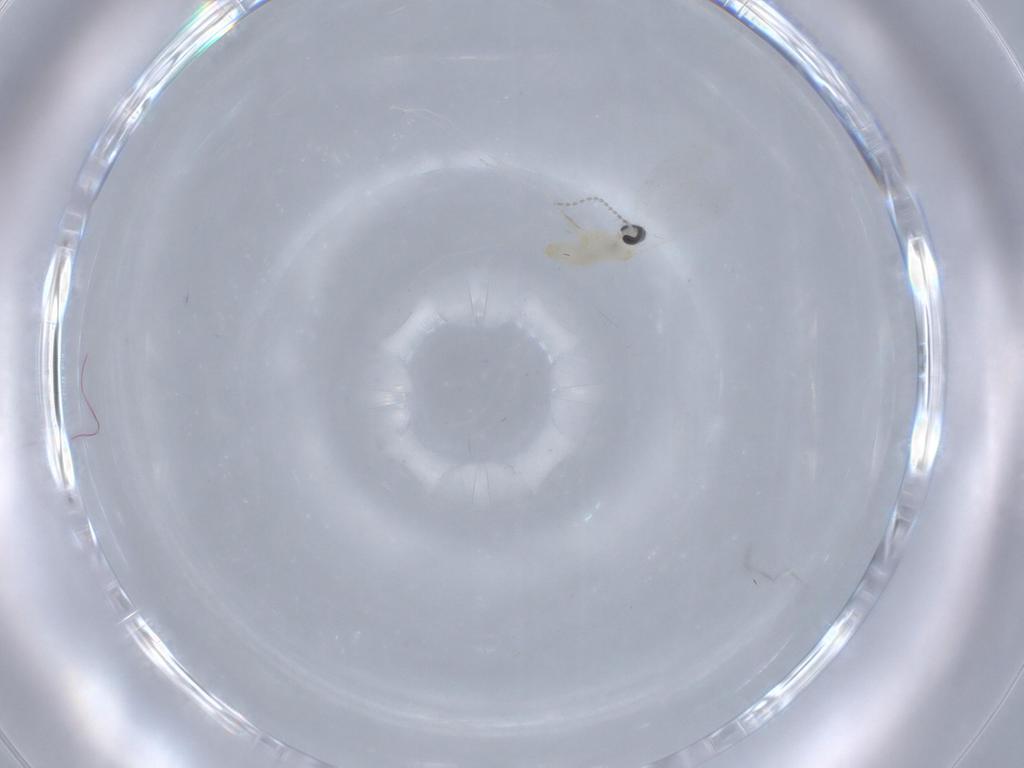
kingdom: Animalia
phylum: Arthropoda
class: Insecta
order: Diptera
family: Cecidomyiidae
